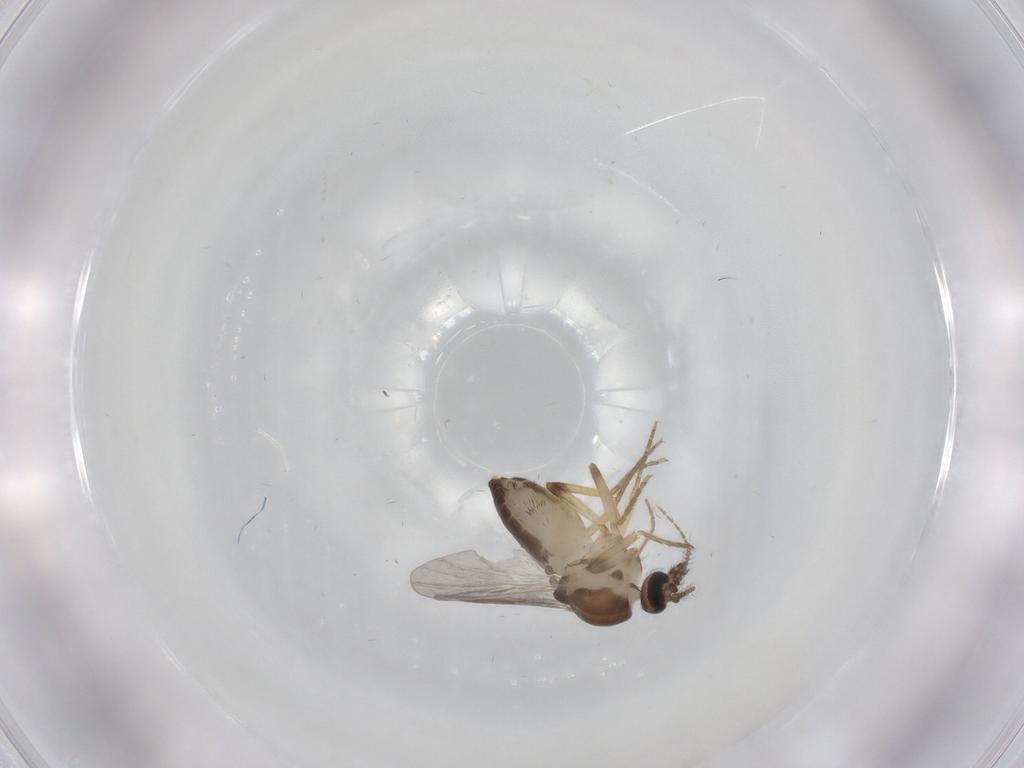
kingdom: Animalia
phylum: Arthropoda
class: Insecta
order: Diptera
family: Ceratopogonidae
